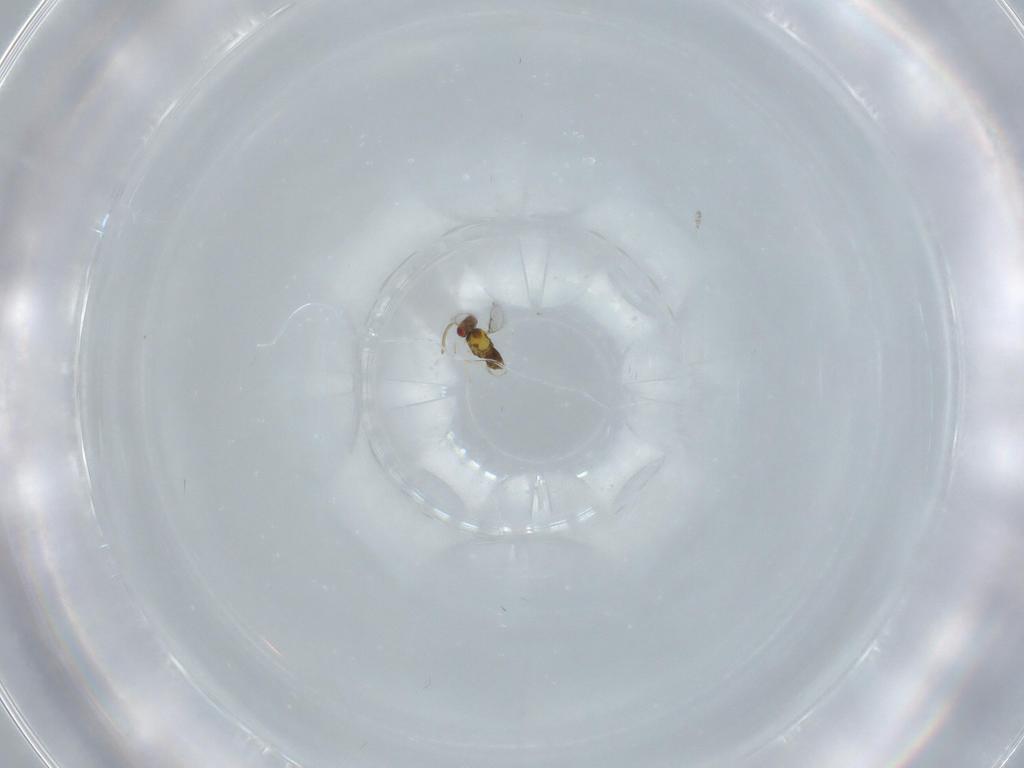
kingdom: Animalia
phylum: Arthropoda
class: Insecta
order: Hymenoptera
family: Aphelinidae
